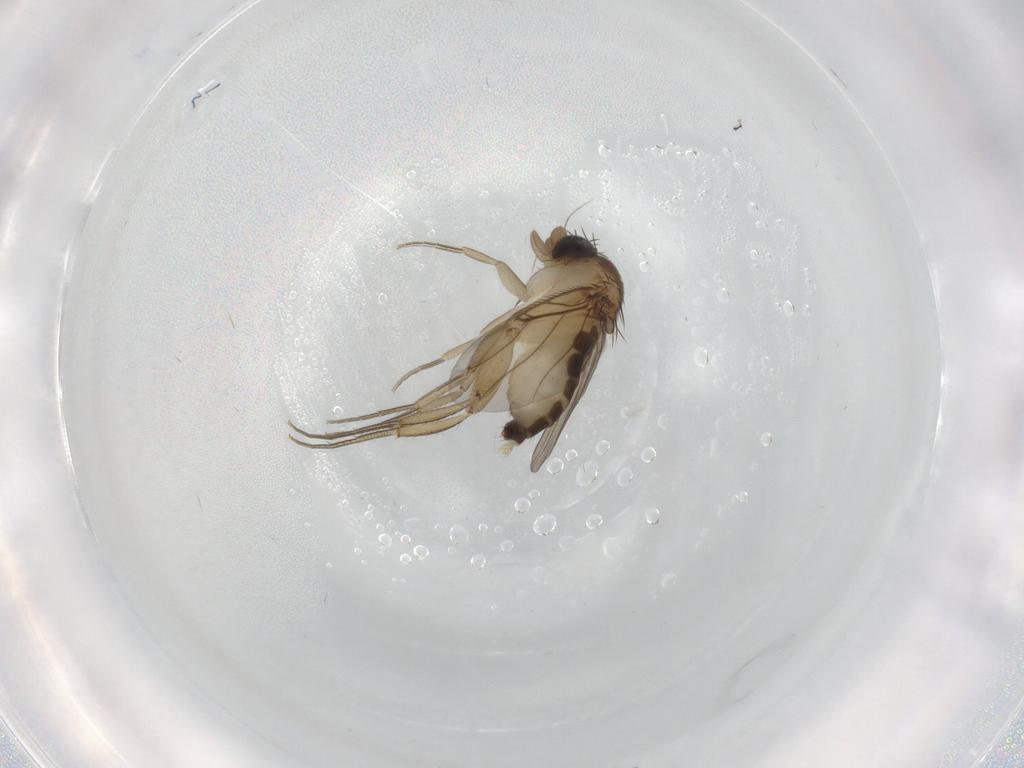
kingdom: Animalia
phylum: Arthropoda
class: Insecta
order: Diptera
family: Phoridae
